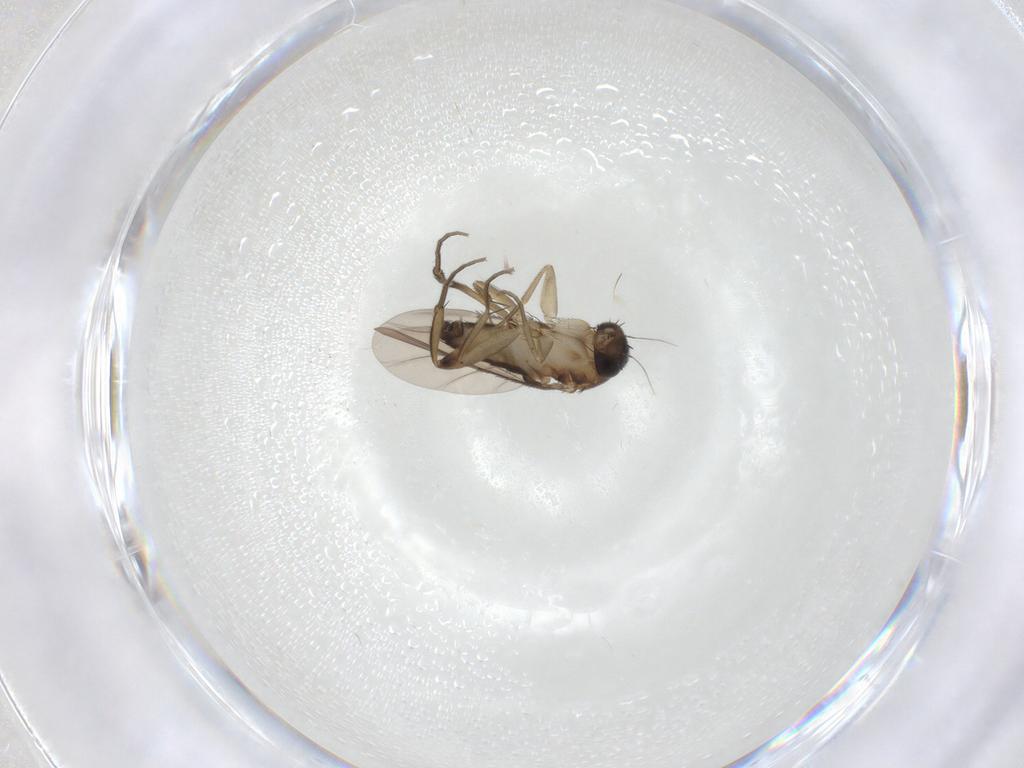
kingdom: Animalia
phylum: Arthropoda
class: Insecta
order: Diptera
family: Phoridae
